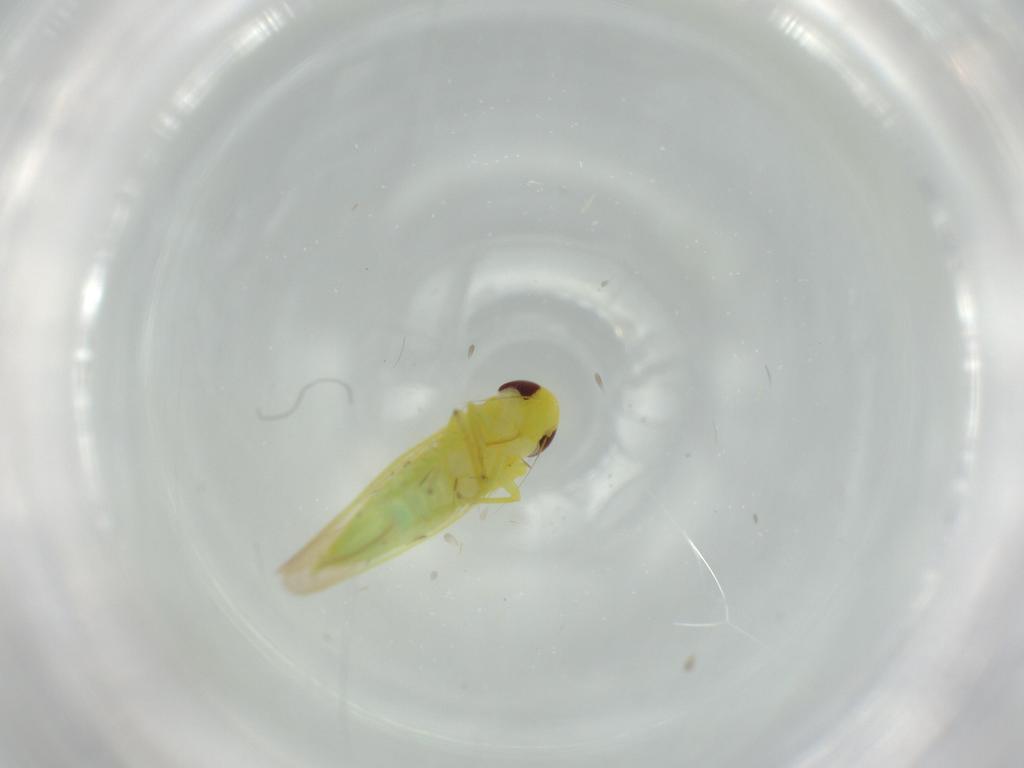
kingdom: Animalia
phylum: Arthropoda
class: Insecta
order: Hemiptera
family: Cicadellidae
